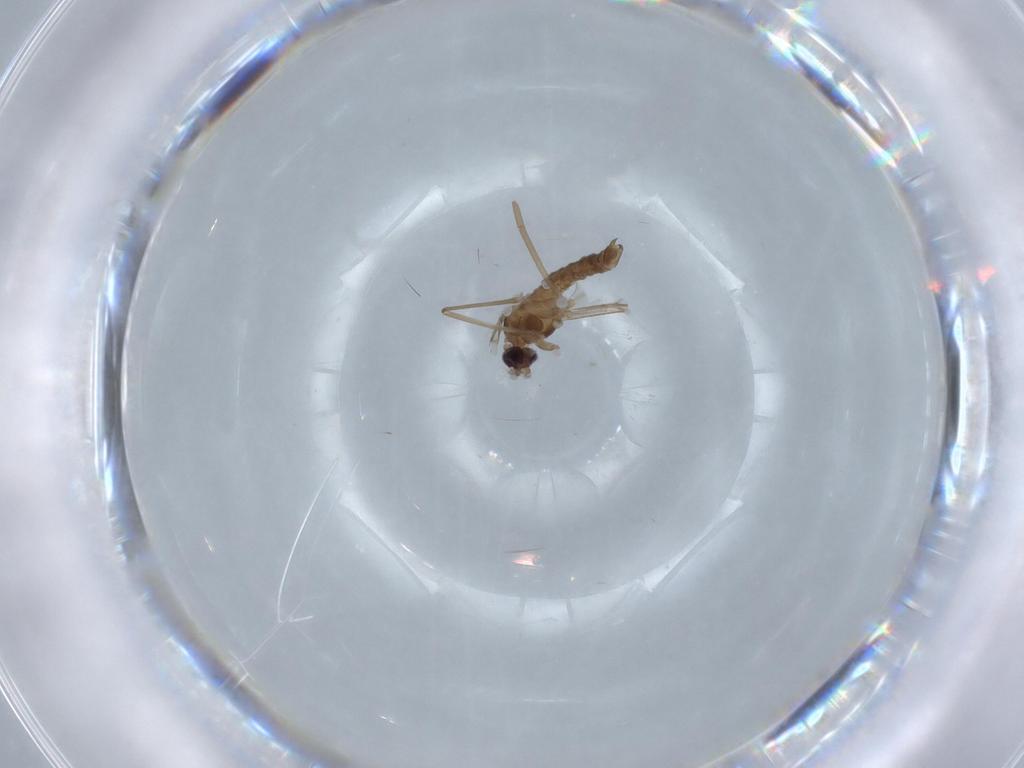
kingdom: Animalia
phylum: Arthropoda
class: Insecta
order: Diptera
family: Cecidomyiidae
